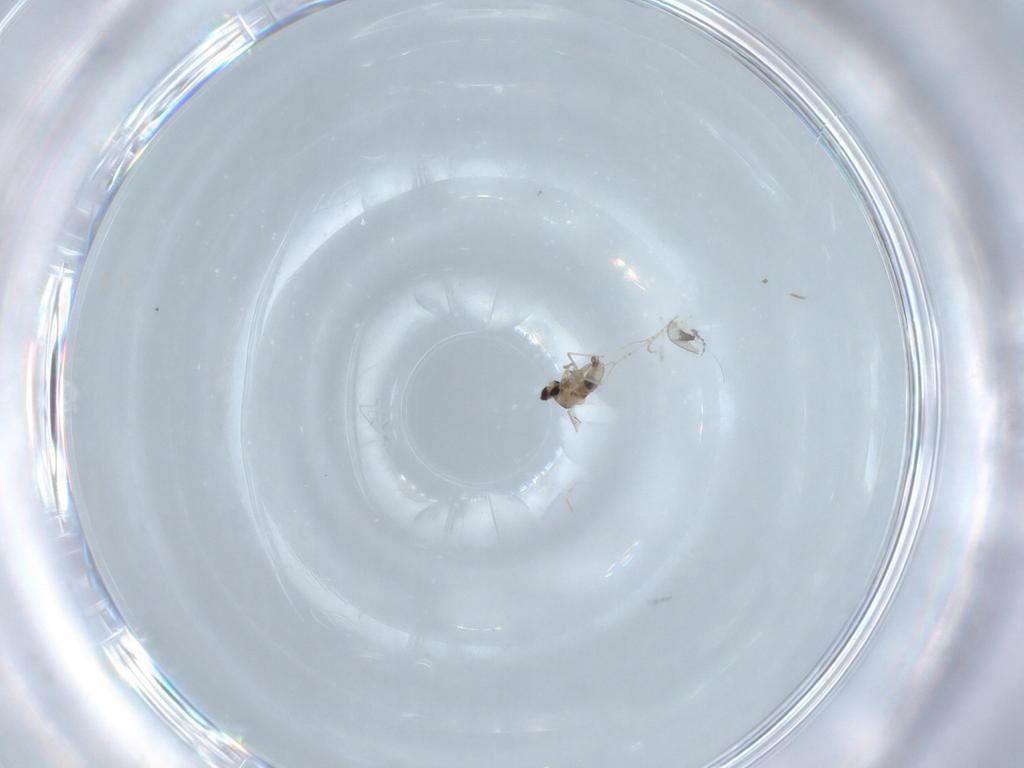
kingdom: Animalia
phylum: Arthropoda
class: Insecta
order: Diptera
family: Cecidomyiidae
